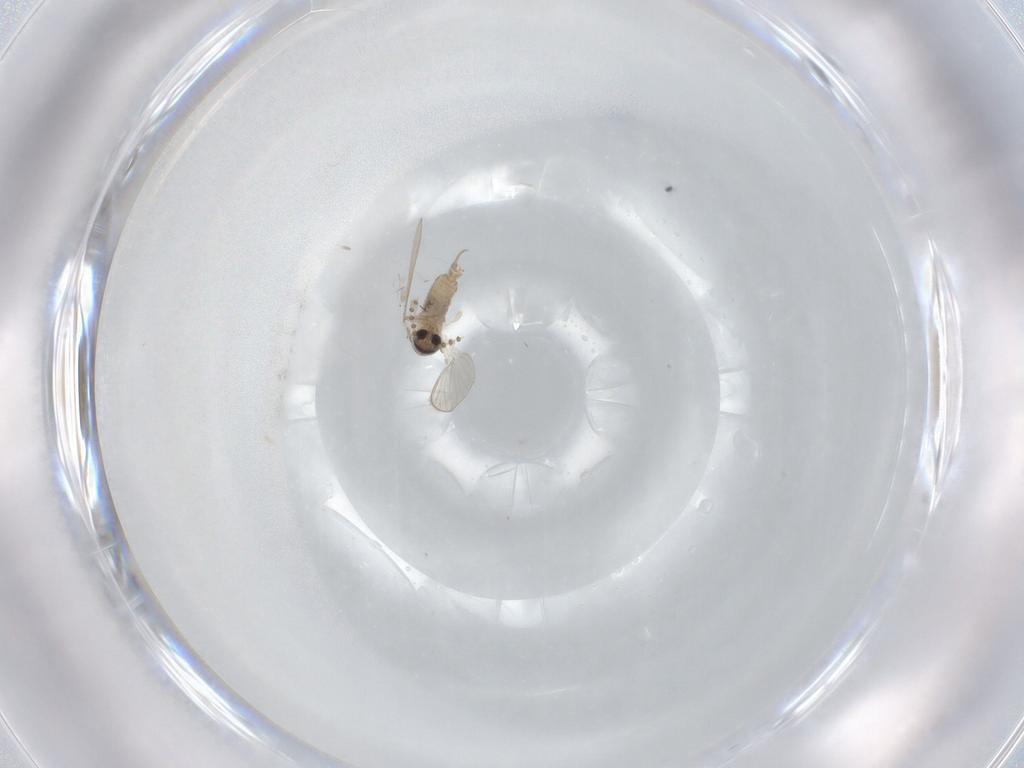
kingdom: Animalia
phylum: Arthropoda
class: Insecta
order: Diptera
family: Psychodidae
